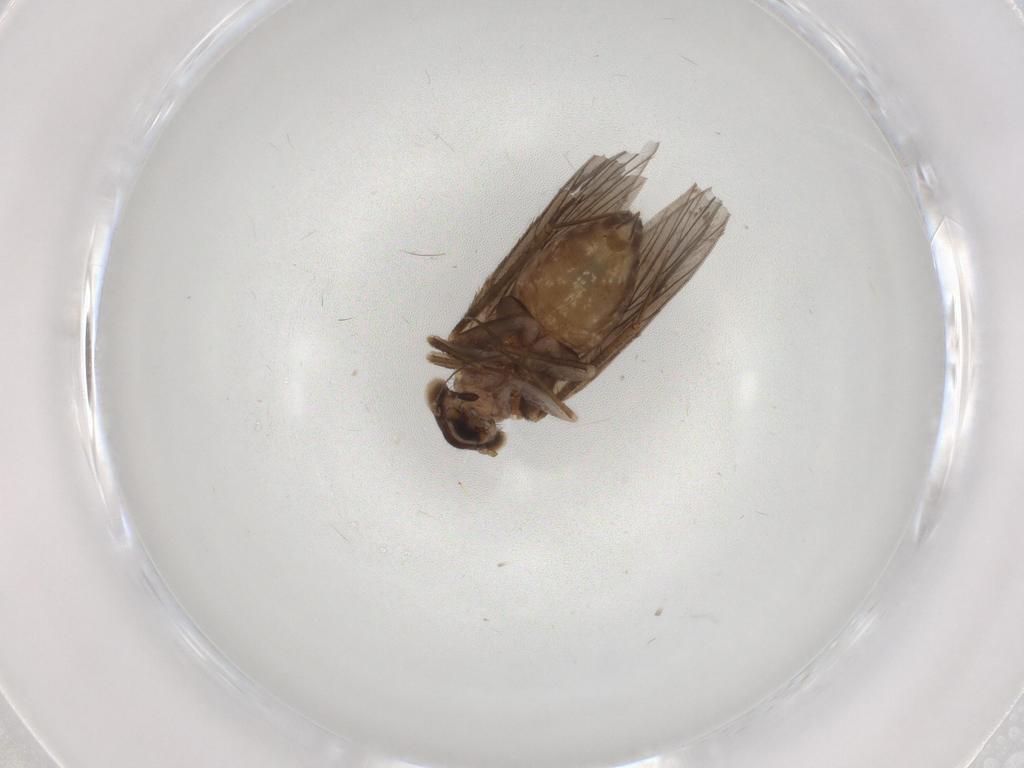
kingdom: Animalia
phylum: Arthropoda
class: Insecta
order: Psocodea
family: Lepidopsocidae
